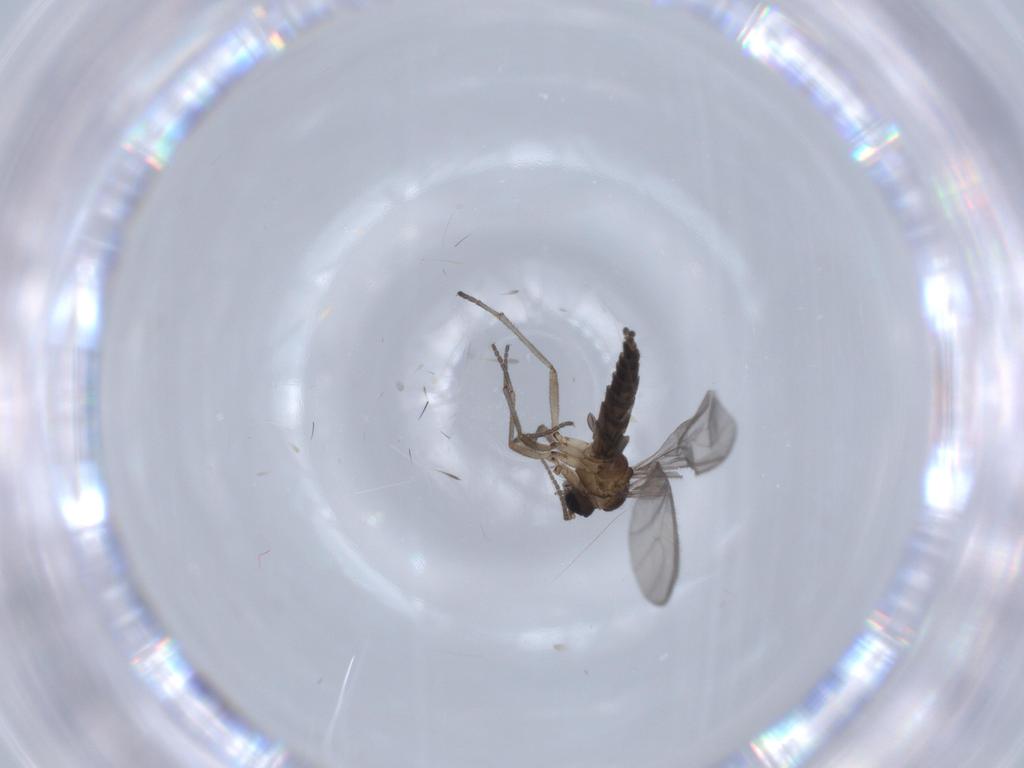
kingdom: Animalia
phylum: Arthropoda
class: Insecta
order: Diptera
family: Sciaridae
